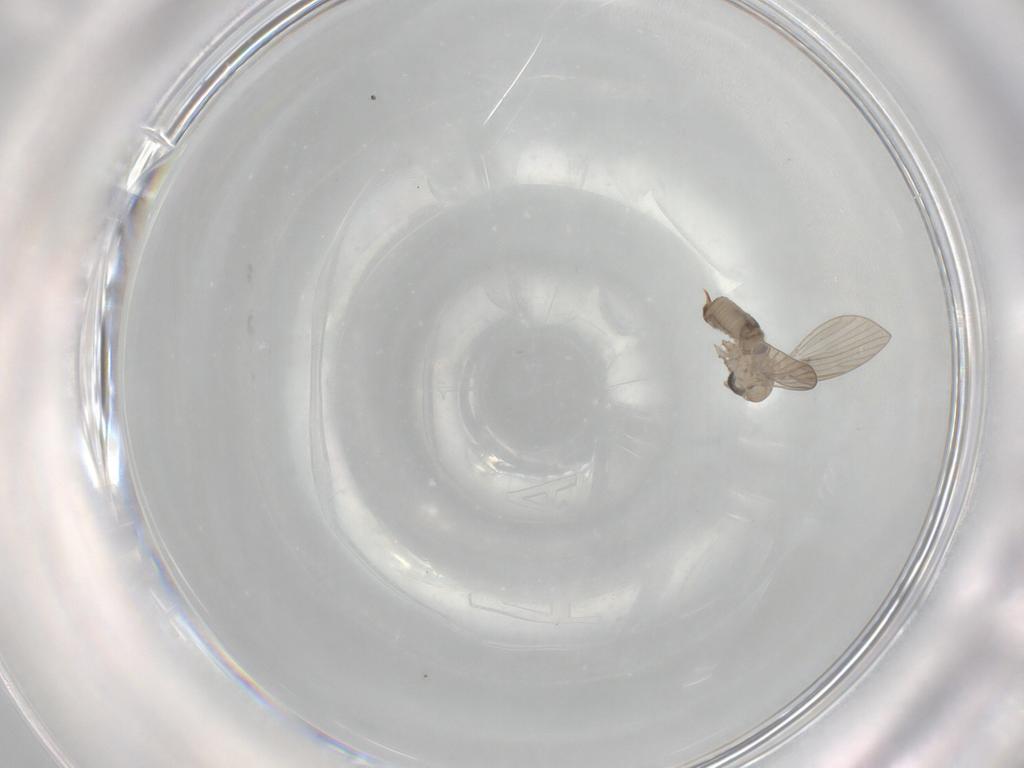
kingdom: Animalia
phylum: Arthropoda
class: Insecta
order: Diptera
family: Psychodidae
